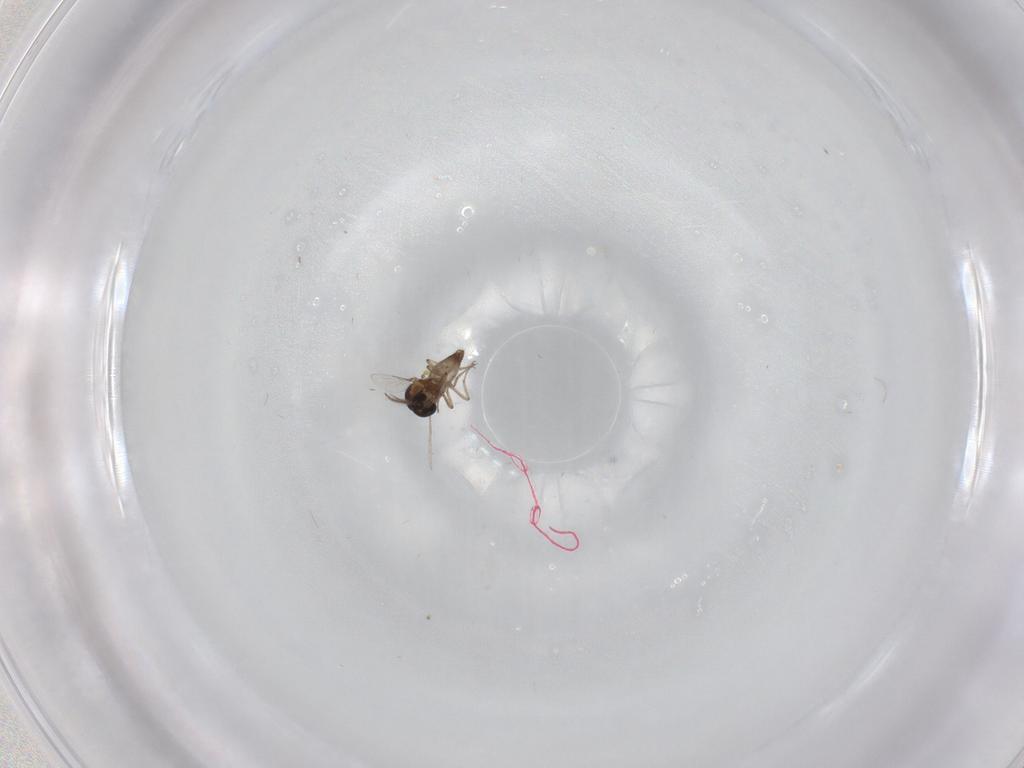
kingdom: Animalia
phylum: Arthropoda
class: Insecta
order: Diptera
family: Ceratopogonidae
